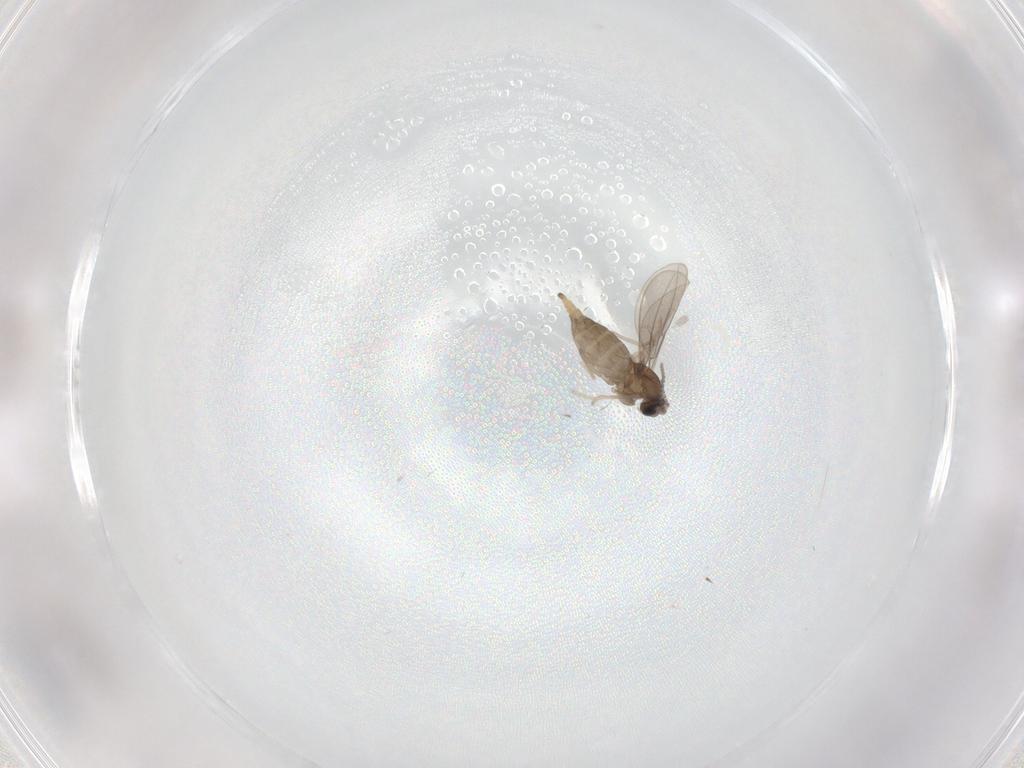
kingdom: Animalia
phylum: Arthropoda
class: Insecta
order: Diptera
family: Cecidomyiidae
